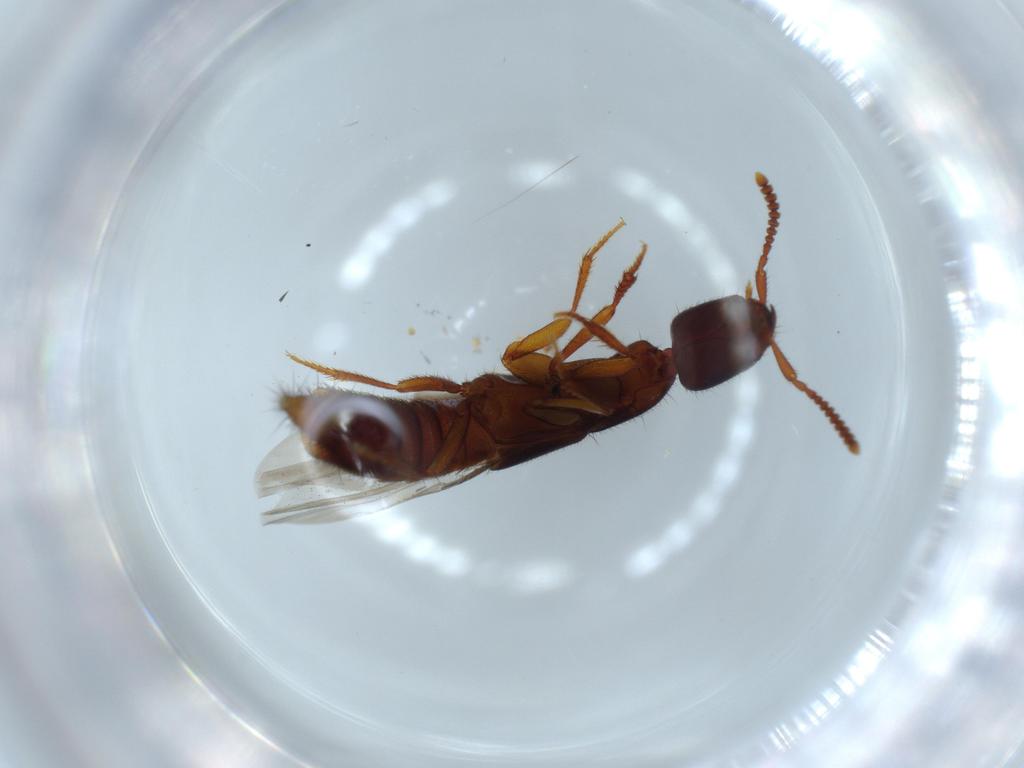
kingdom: Animalia
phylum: Arthropoda
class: Insecta
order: Coleoptera
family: Staphylinidae
